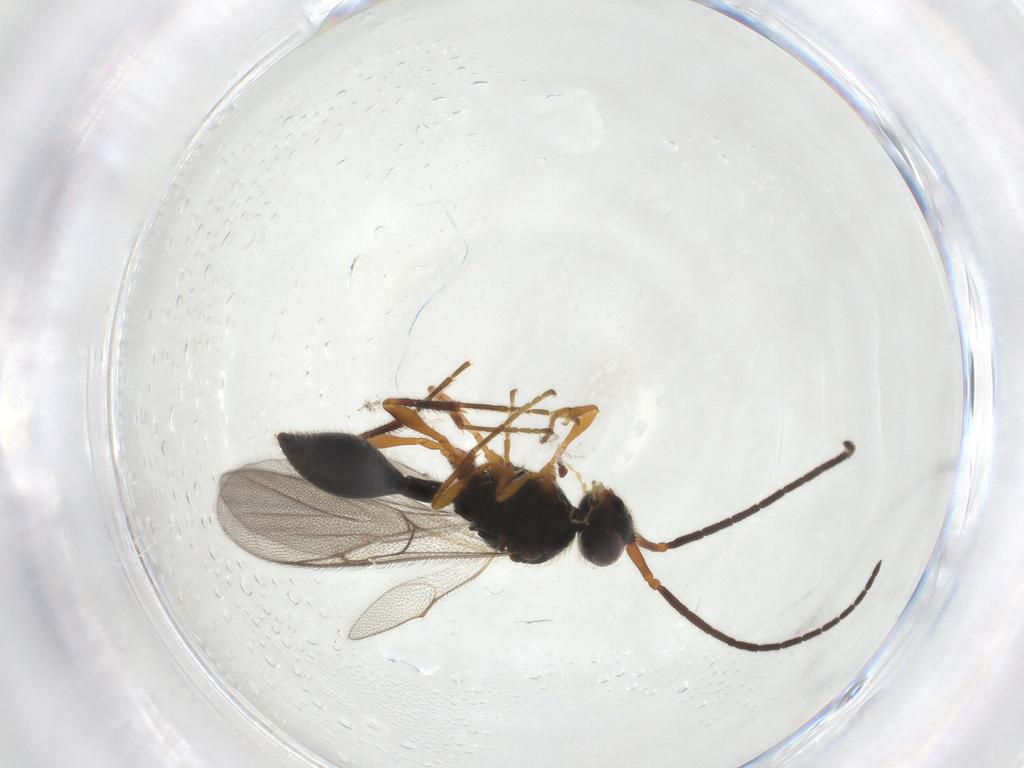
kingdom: Animalia
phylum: Arthropoda
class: Insecta
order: Hymenoptera
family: Diapriidae
